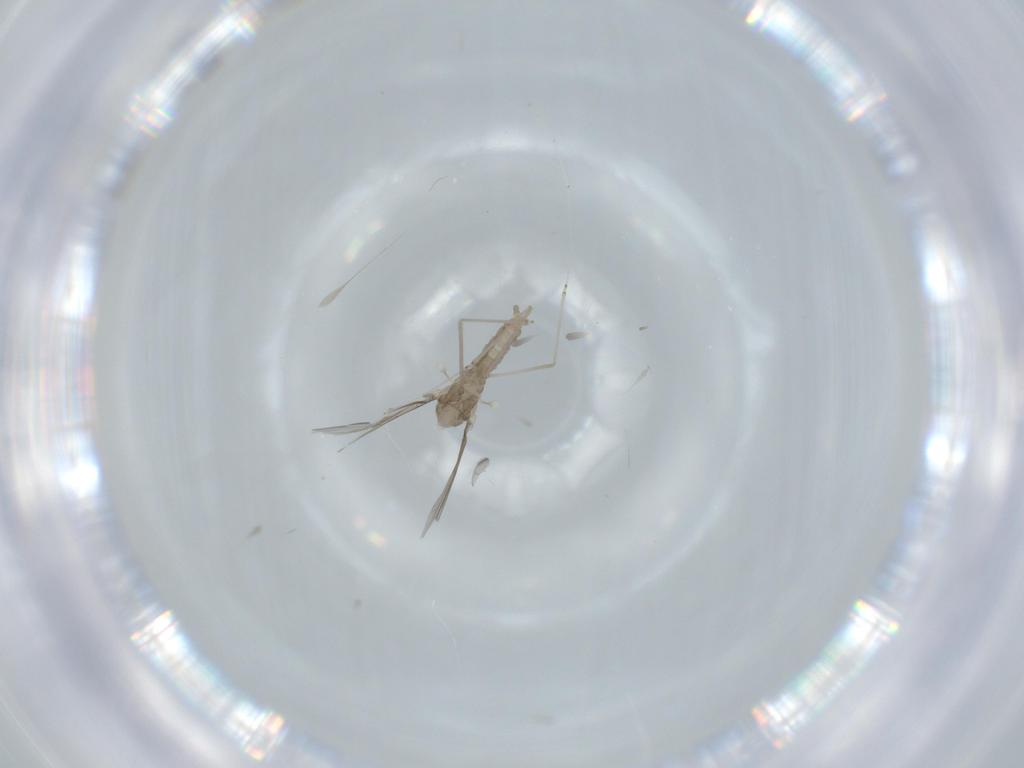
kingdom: Animalia
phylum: Arthropoda
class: Insecta
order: Diptera
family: Cecidomyiidae
